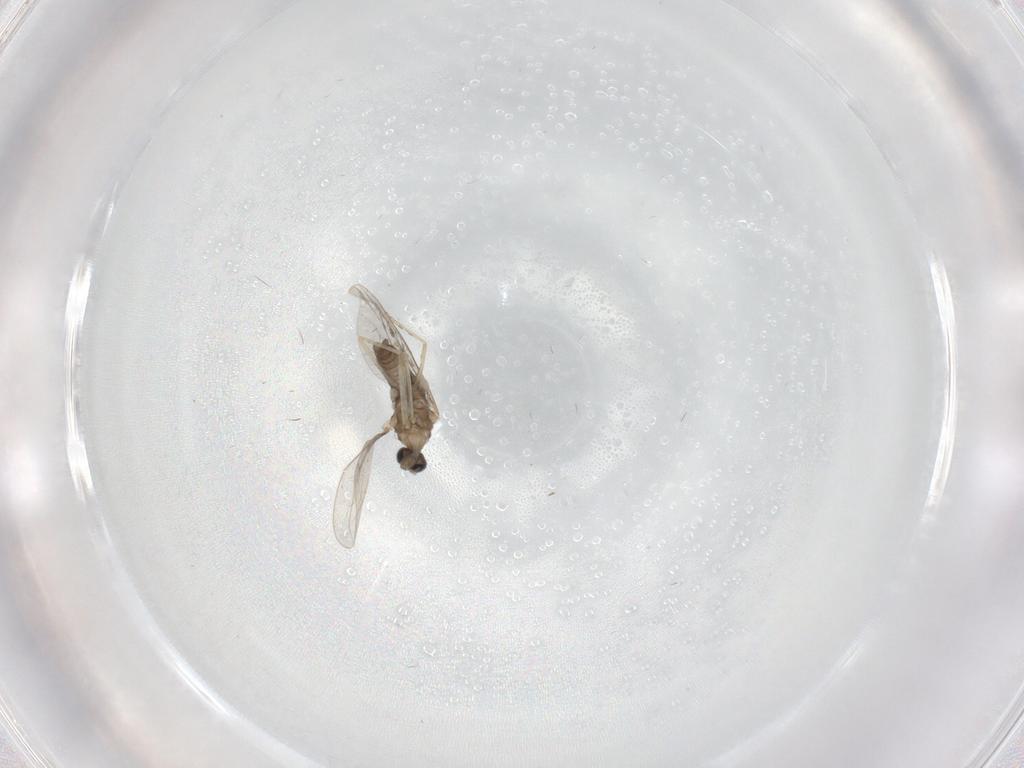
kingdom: Animalia
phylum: Arthropoda
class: Insecta
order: Diptera
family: Cecidomyiidae
